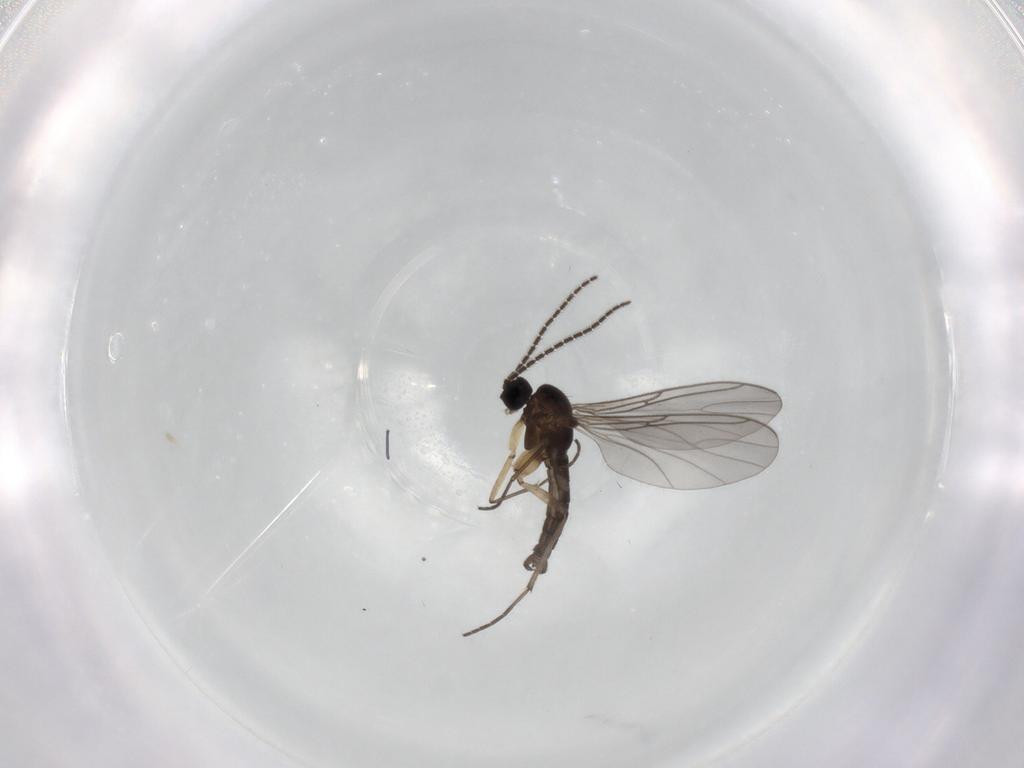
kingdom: Animalia
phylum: Arthropoda
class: Insecta
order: Diptera
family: Sciaridae
